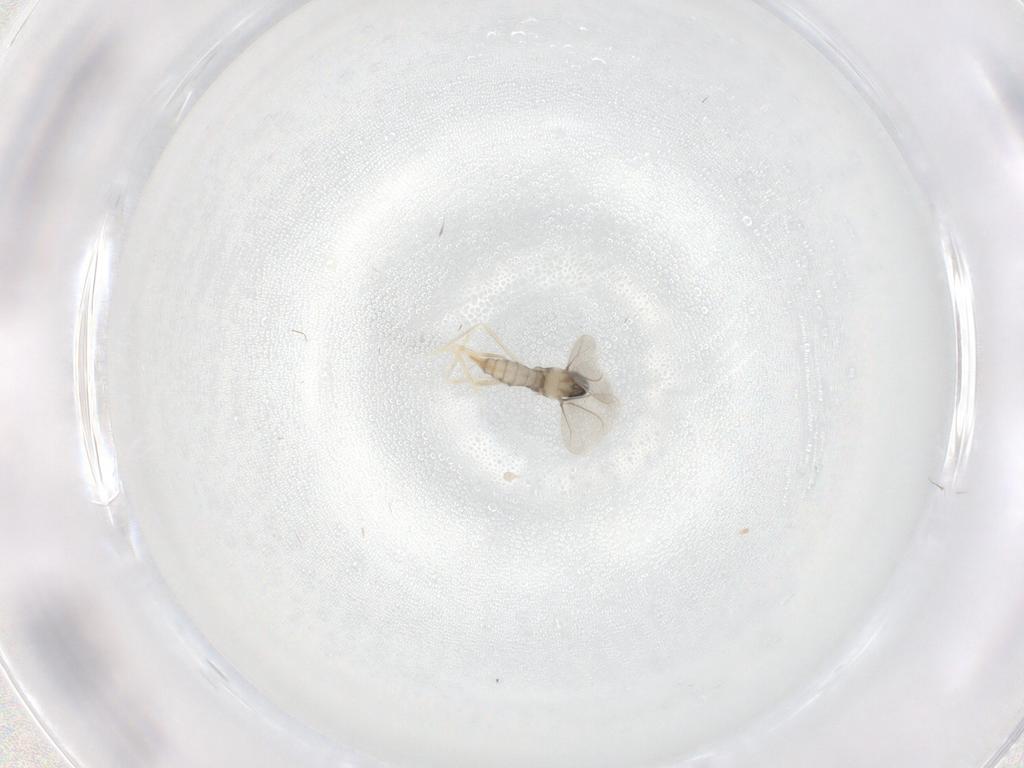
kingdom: Animalia
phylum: Arthropoda
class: Insecta
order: Diptera
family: Cecidomyiidae
